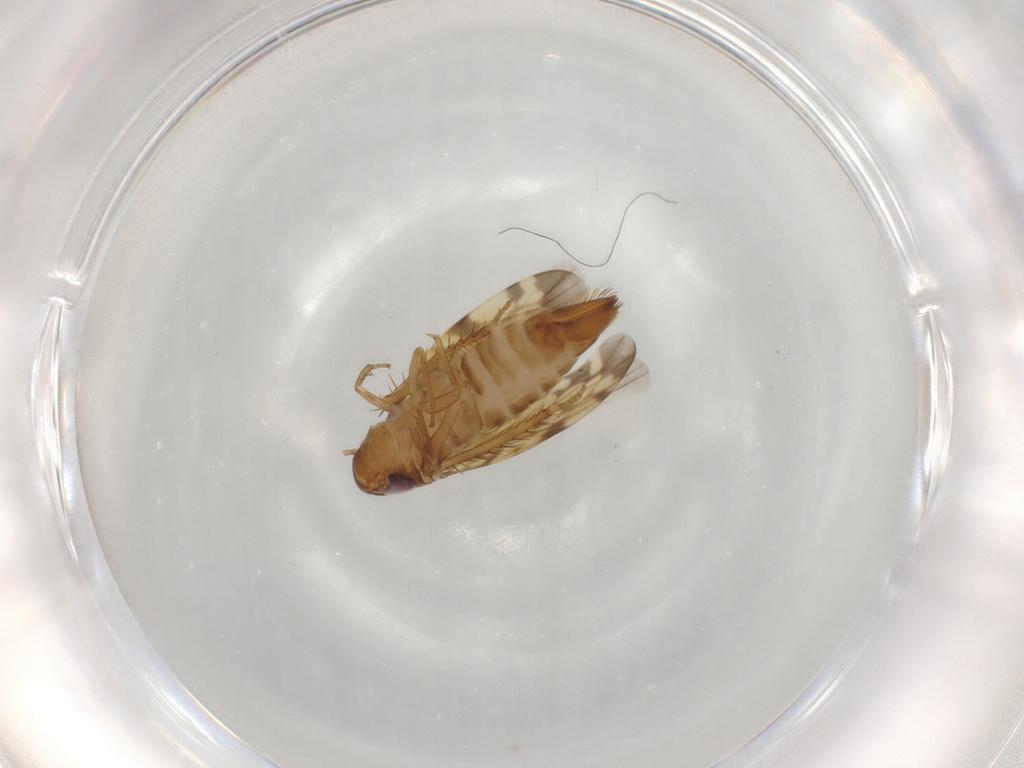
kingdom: Animalia
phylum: Arthropoda
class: Insecta
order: Hemiptera
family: Cicadellidae
